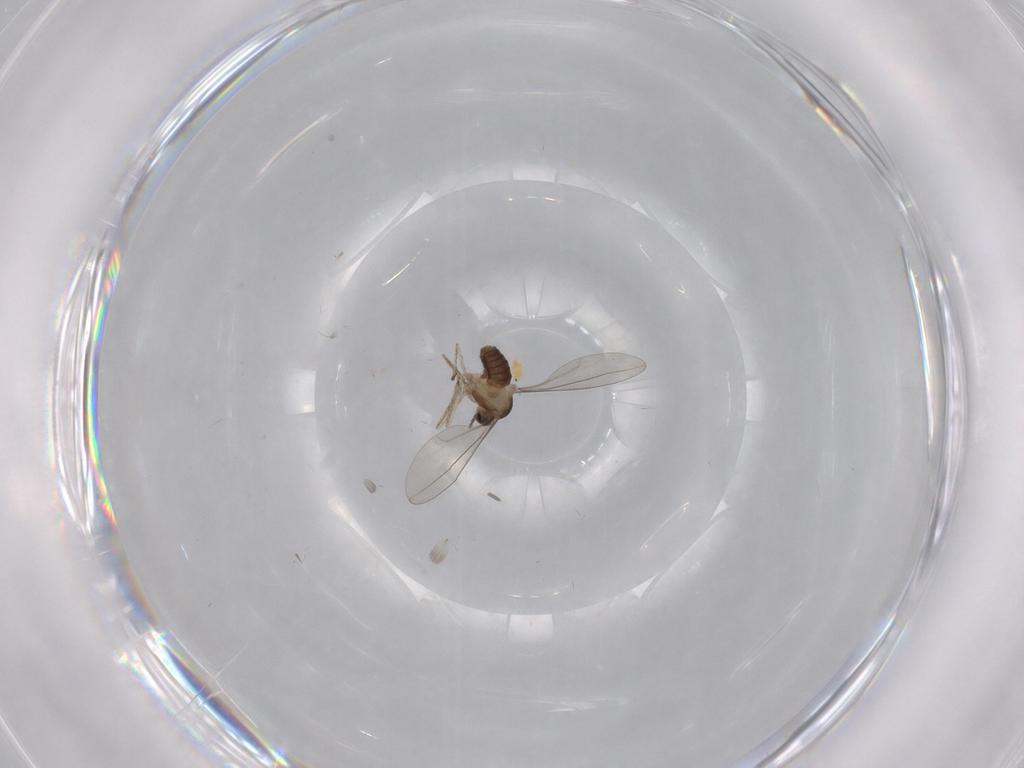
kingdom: Animalia
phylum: Arthropoda
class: Insecta
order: Diptera
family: Cecidomyiidae
